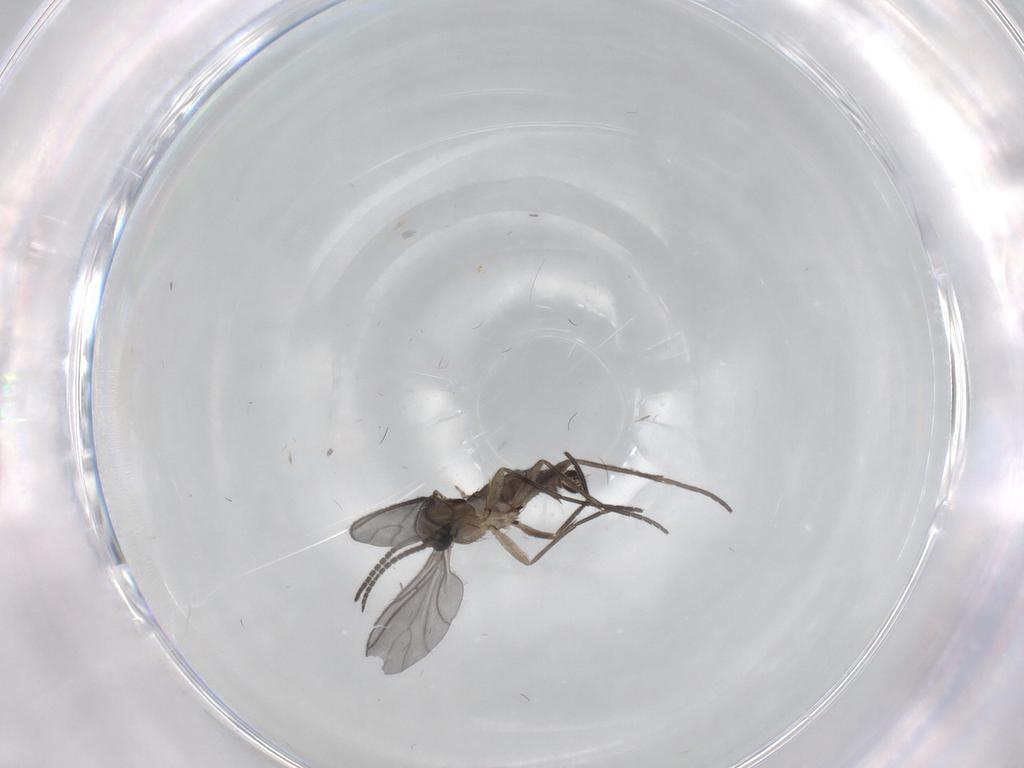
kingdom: Animalia
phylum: Arthropoda
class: Insecta
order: Diptera
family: Sciaridae
